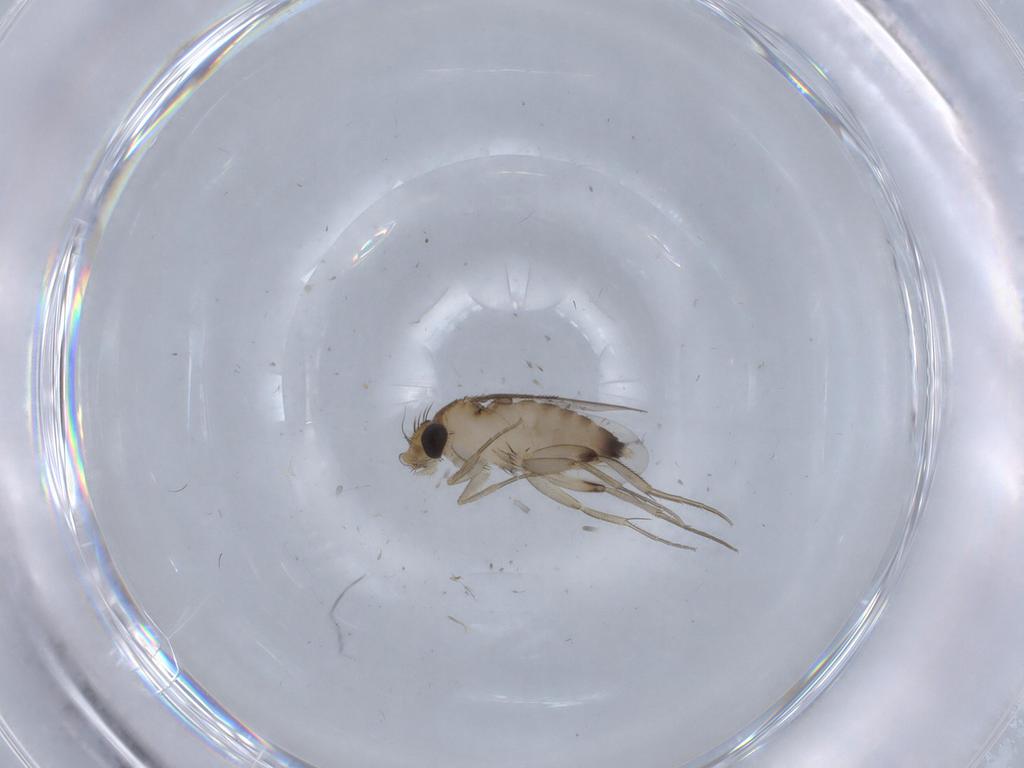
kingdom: Animalia
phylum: Arthropoda
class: Insecta
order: Diptera
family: Phoridae
